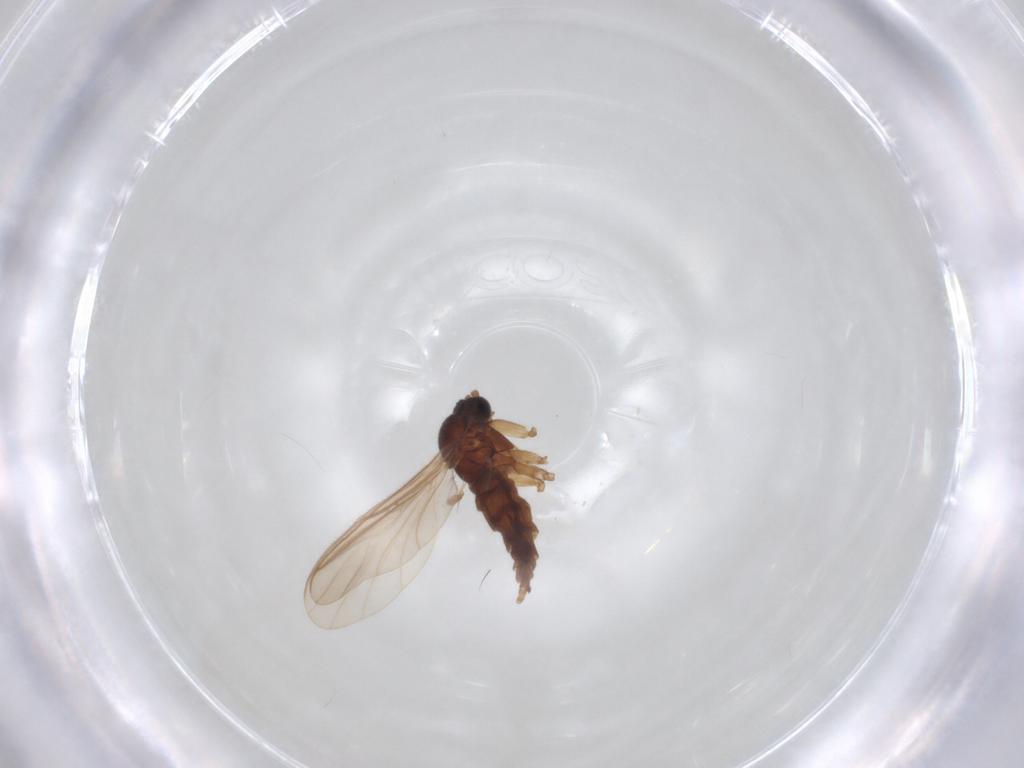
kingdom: Animalia
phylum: Arthropoda
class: Insecta
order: Diptera
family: Sciaridae
